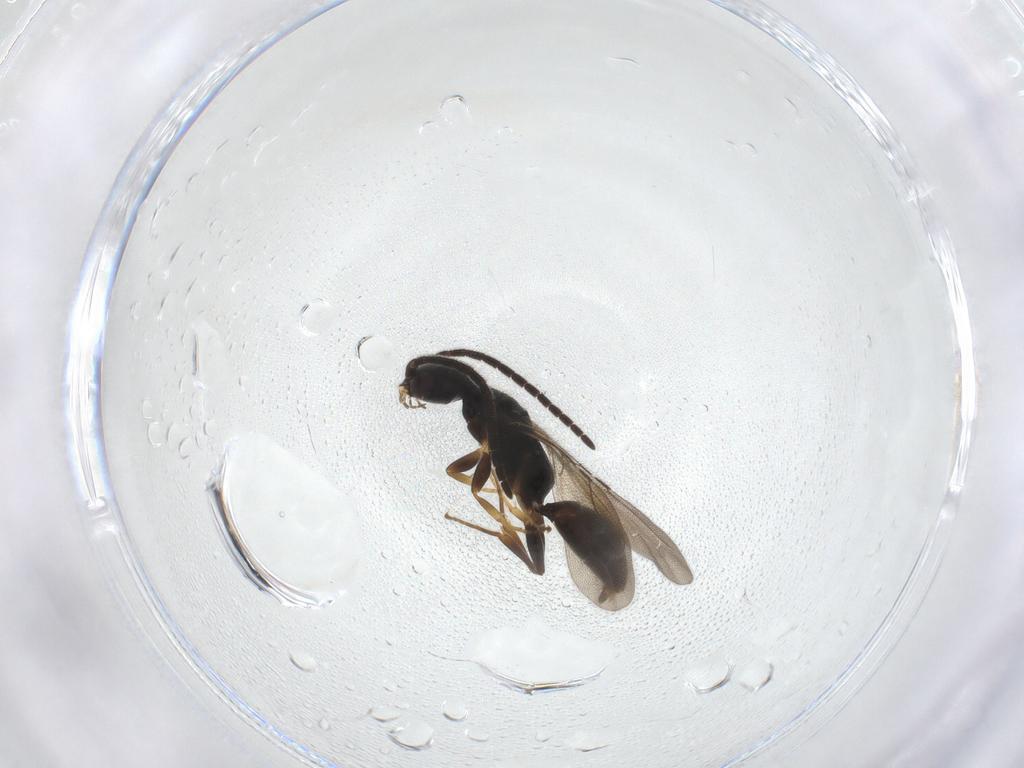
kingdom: Animalia
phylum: Arthropoda
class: Insecta
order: Hymenoptera
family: Bethylidae
